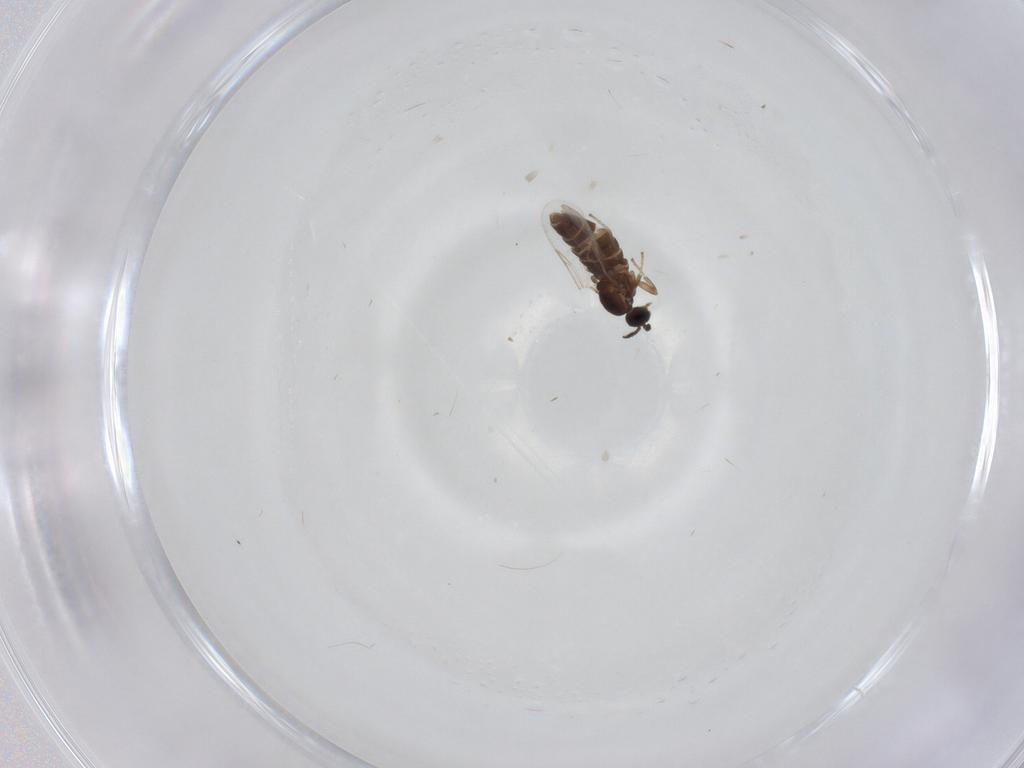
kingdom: Animalia
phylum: Arthropoda
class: Insecta
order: Diptera
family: Scatopsidae
